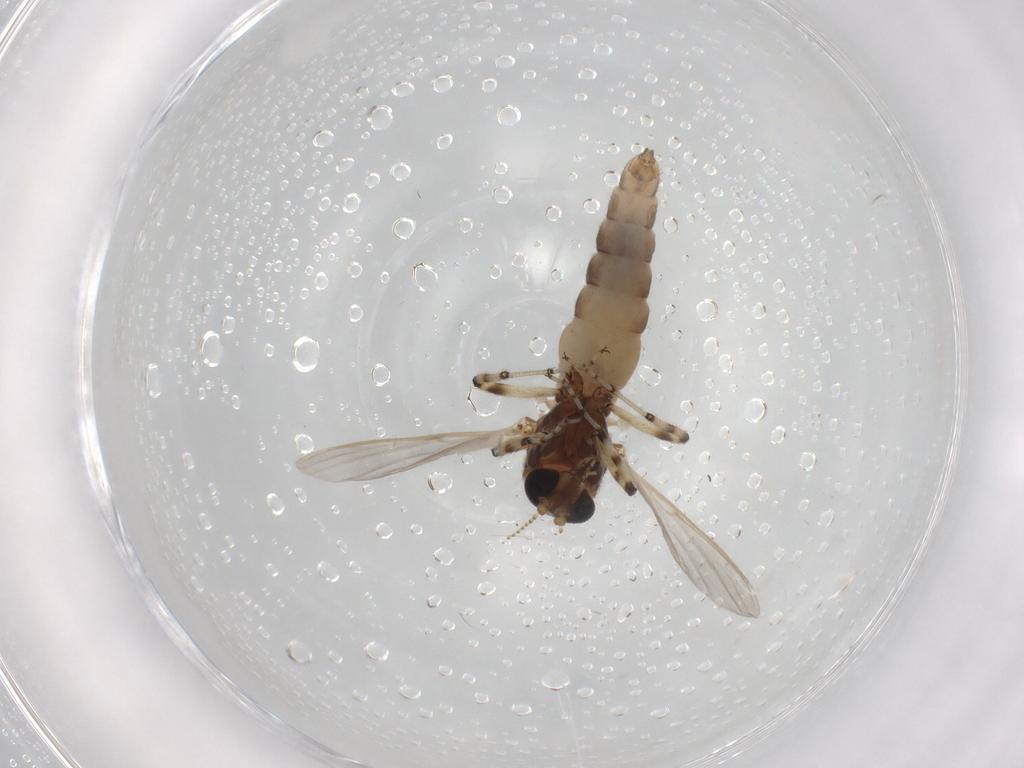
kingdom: Animalia
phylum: Arthropoda
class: Insecta
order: Diptera
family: Ceratopogonidae
